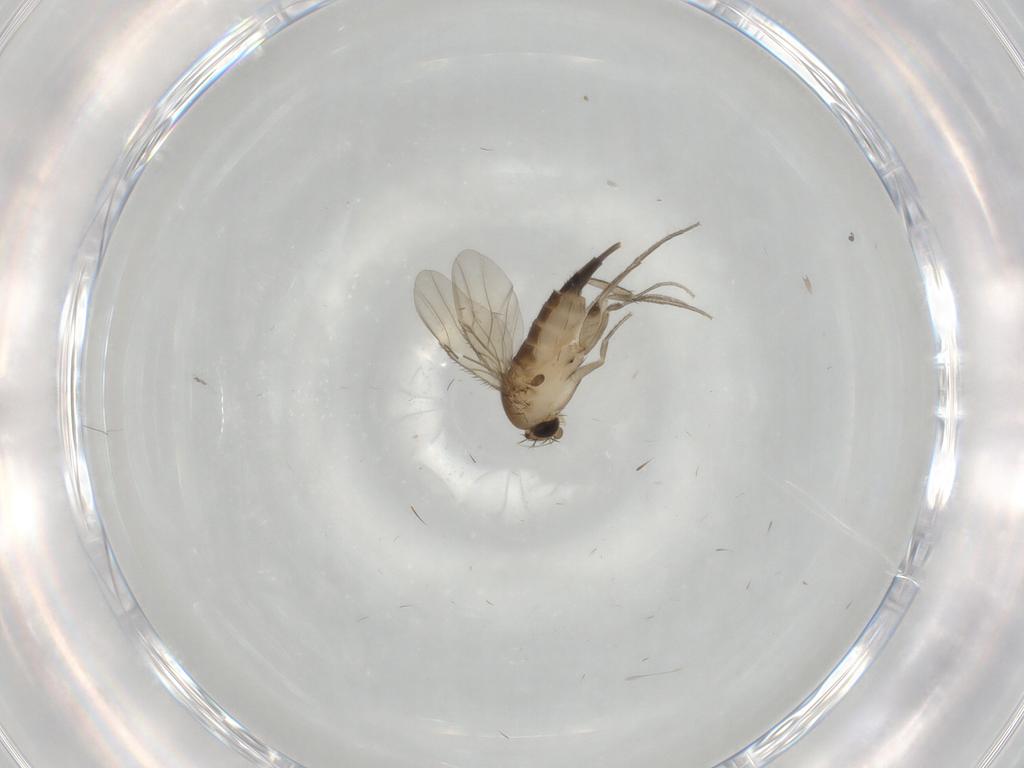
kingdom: Animalia
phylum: Arthropoda
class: Insecta
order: Diptera
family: Phoridae
